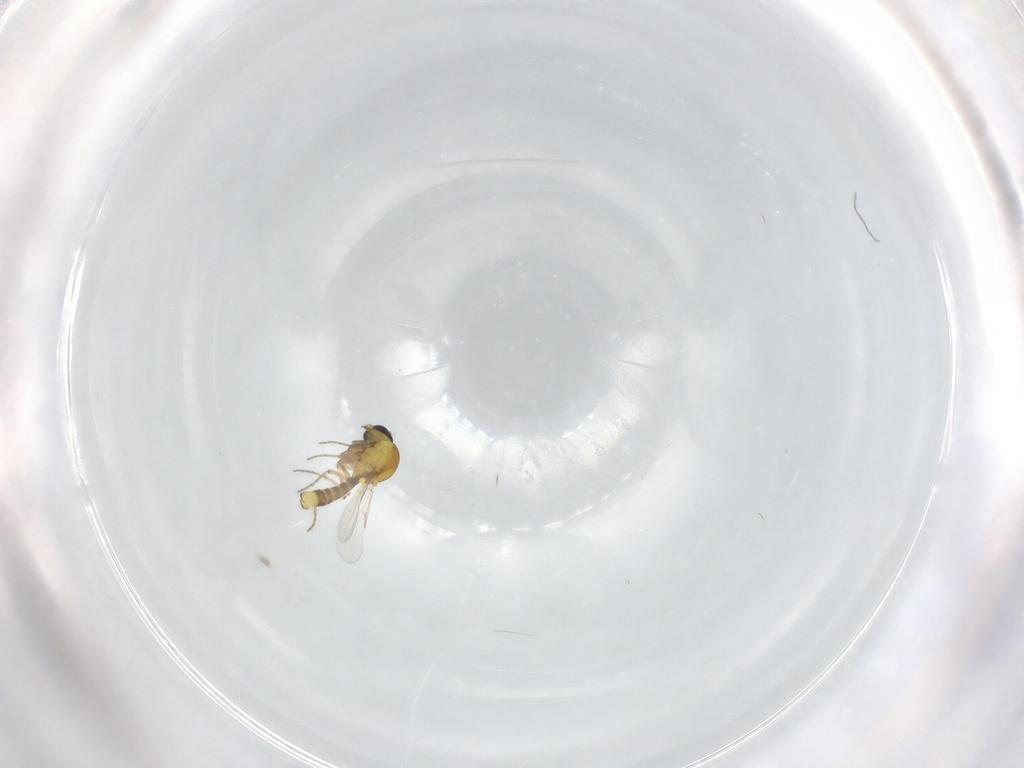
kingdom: Animalia
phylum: Arthropoda
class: Insecta
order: Diptera
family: Ceratopogonidae
